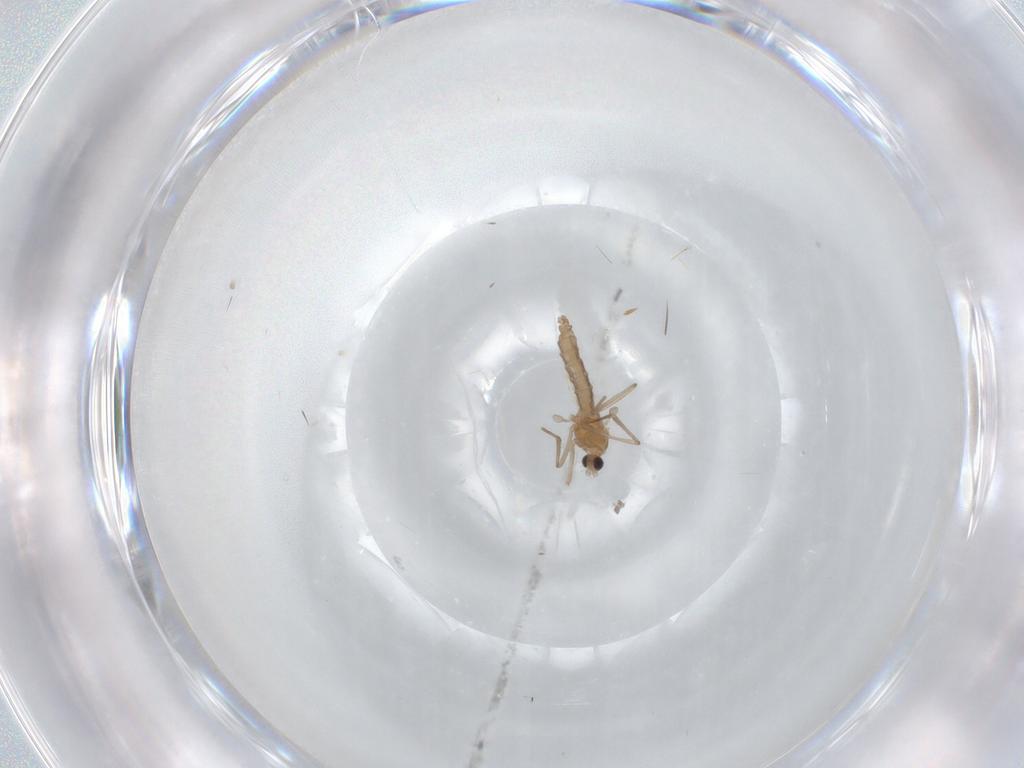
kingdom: Animalia
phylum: Arthropoda
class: Insecta
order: Diptera
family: Cecidomyiidae
